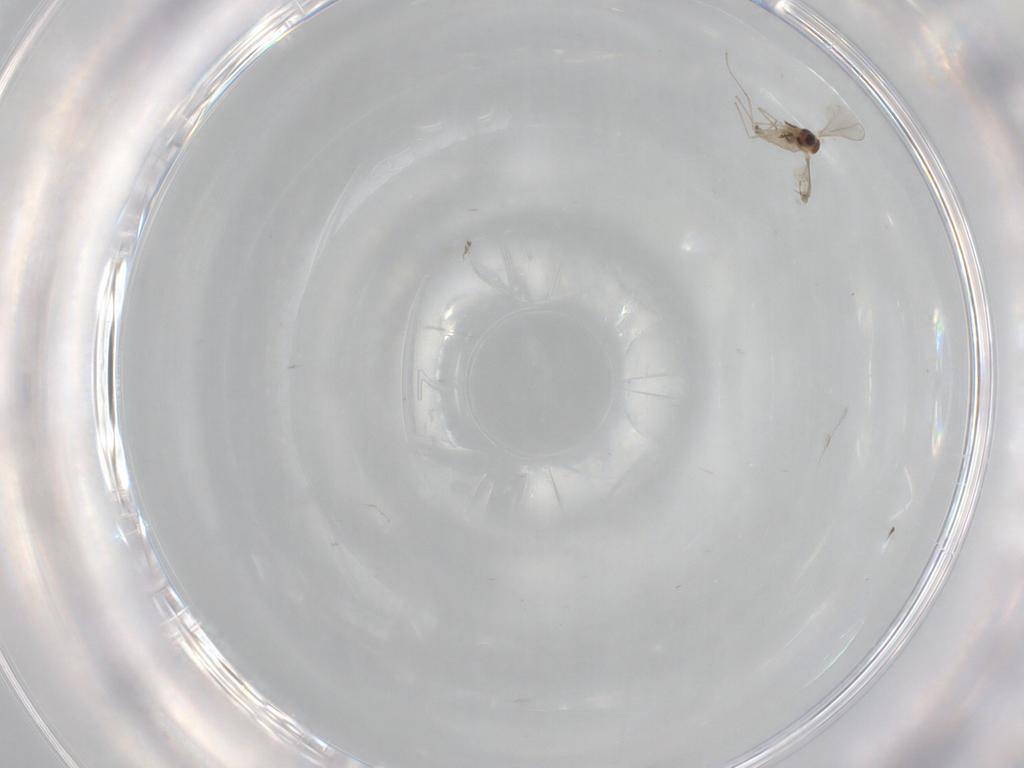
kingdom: Animalia
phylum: Arthropoda
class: Insecta
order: Diptera
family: Cecidomyiidae
